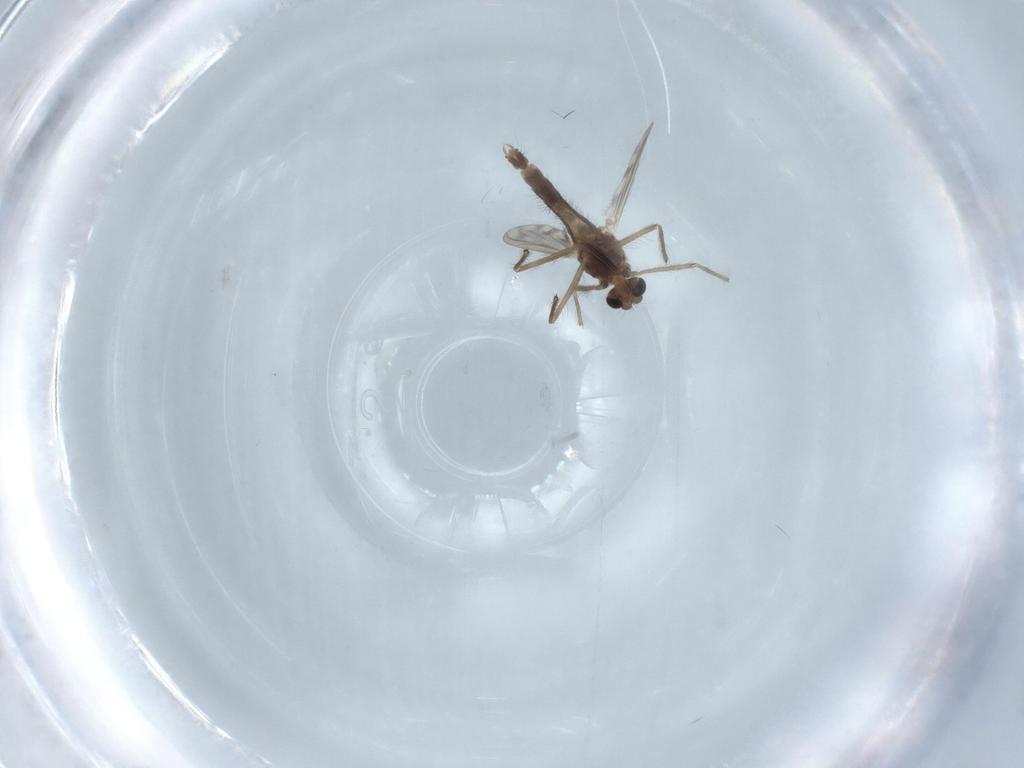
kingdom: Animalia
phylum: Arthropoda
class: Insecta
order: Diptera
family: Chironomidae
